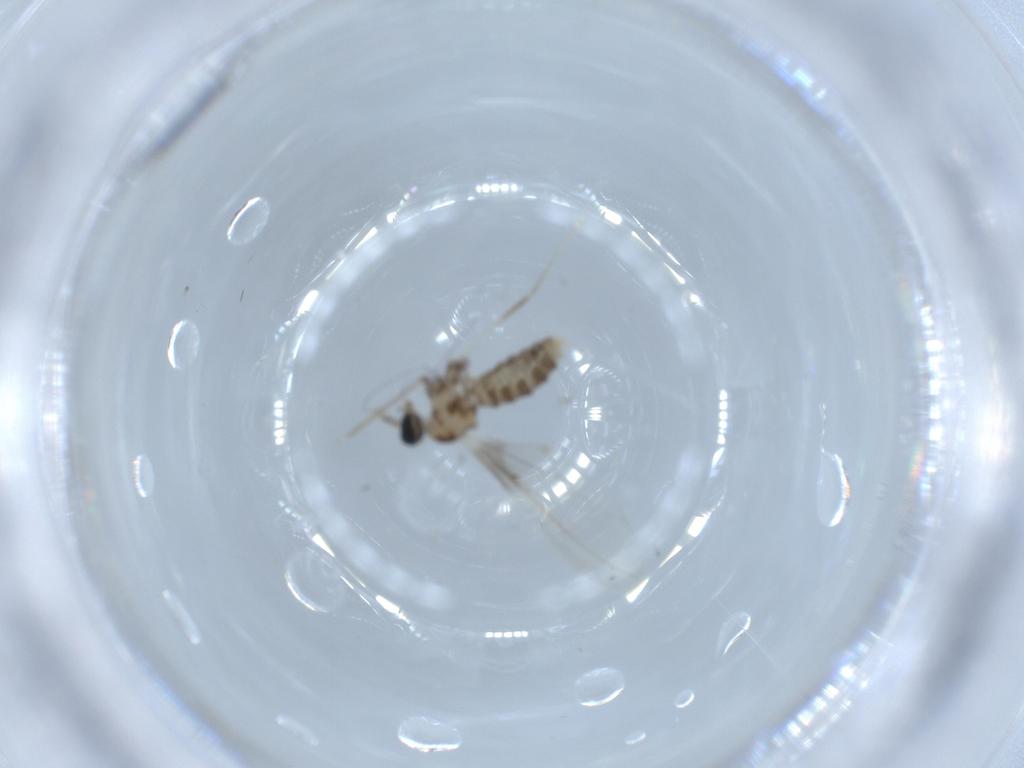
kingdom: Animalia
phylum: Arthropoda
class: Insecta
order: Diptera
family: Cecidomyiidae
